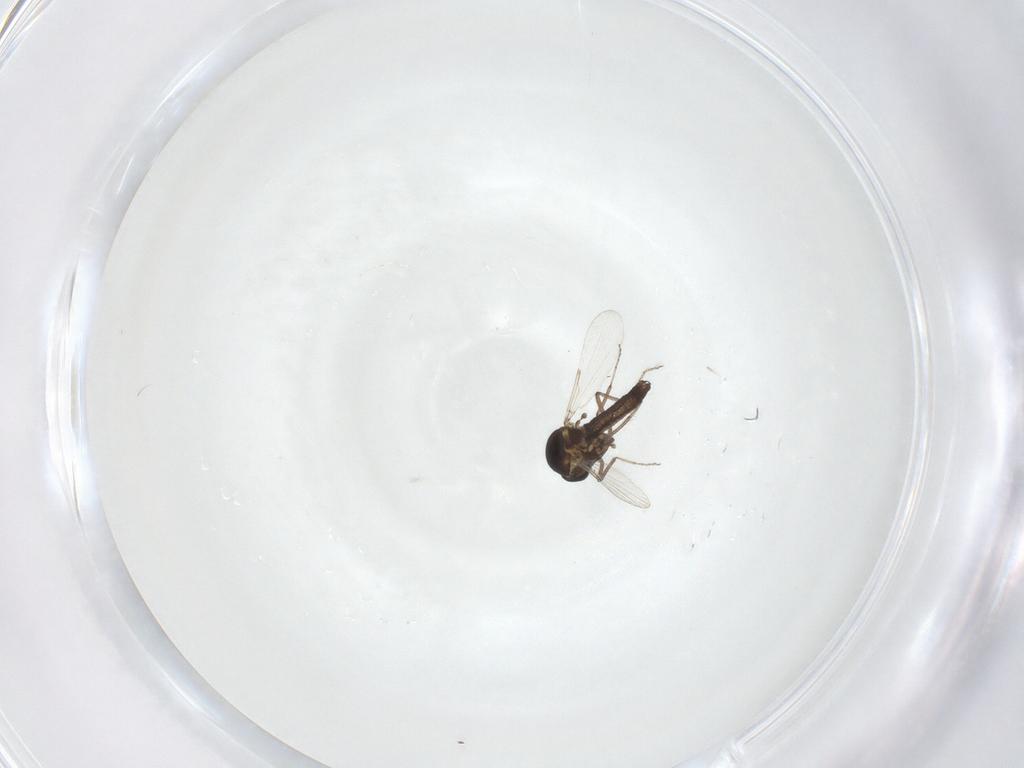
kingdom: Animalia
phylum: Arthropoda
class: Insecta
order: Diptera
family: Ceratopogonidae
